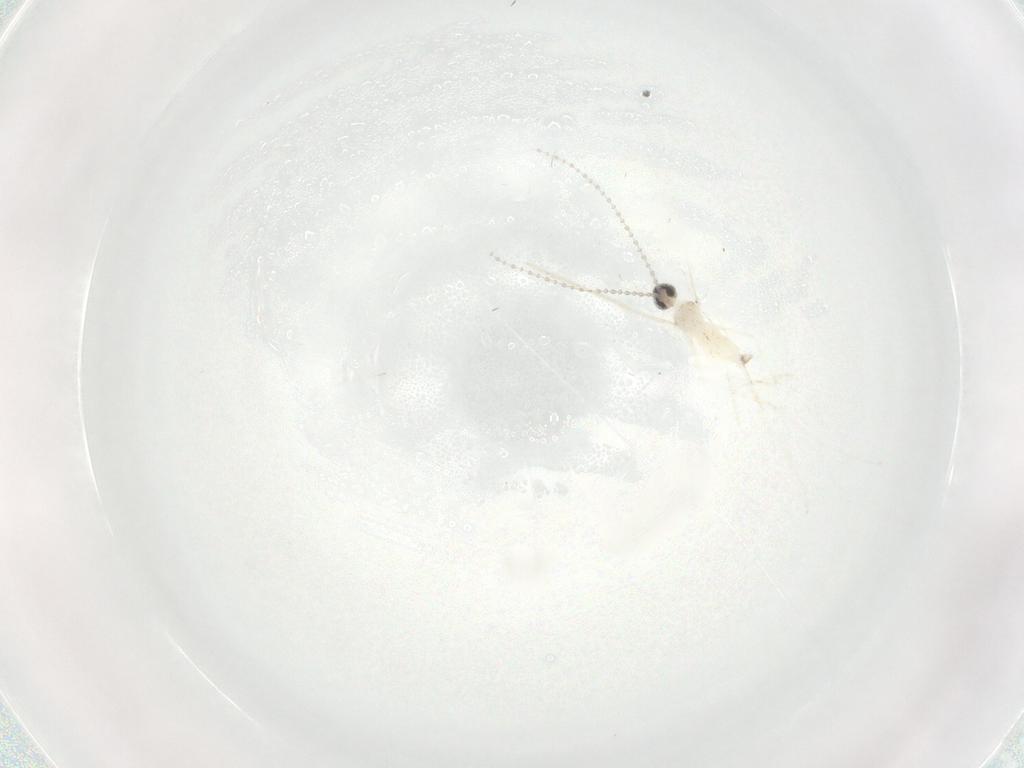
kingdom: Animalia
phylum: Arthropoda
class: Insecta
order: Diptera
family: Cecidomyiidae
